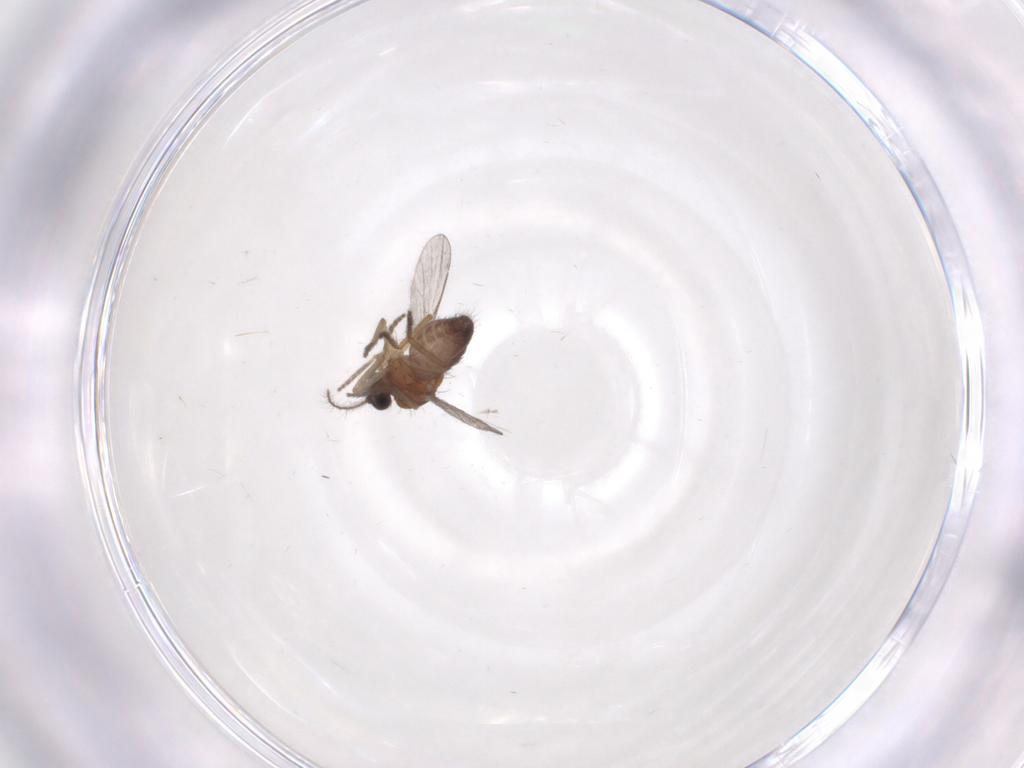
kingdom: Animalia
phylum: Arthropoda
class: Insecta
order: Diptera
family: Ceratopogonidae
